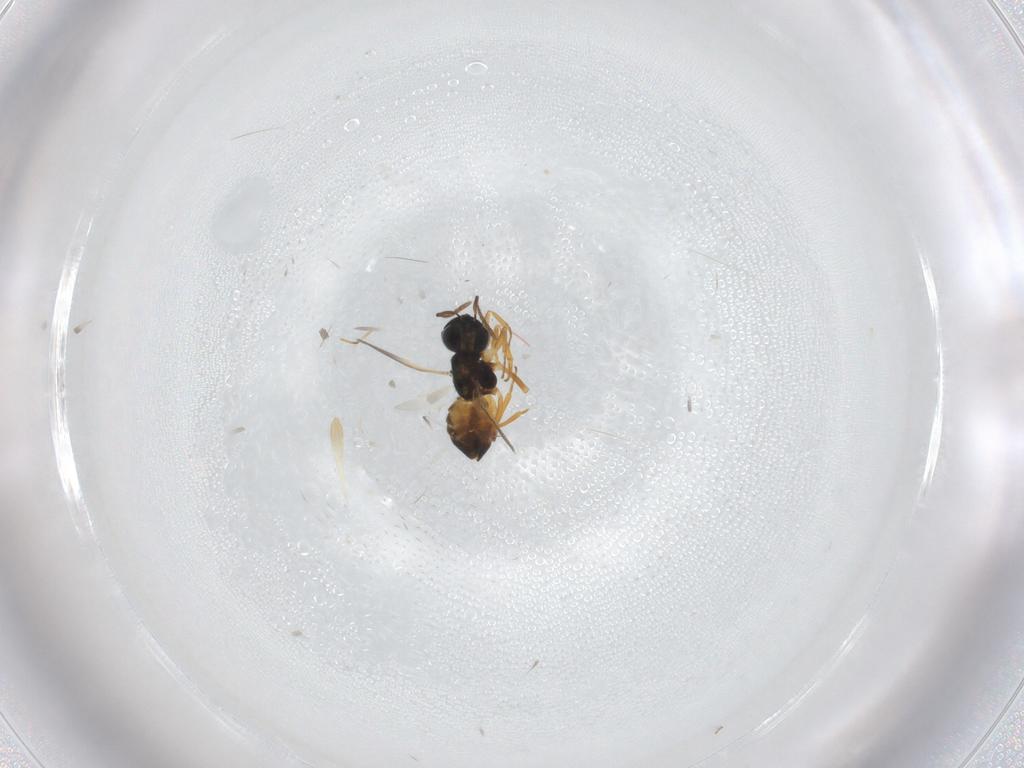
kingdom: Animalia
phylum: Arthropoda
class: Insecta
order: Hymenoptera
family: Encyrtidae
